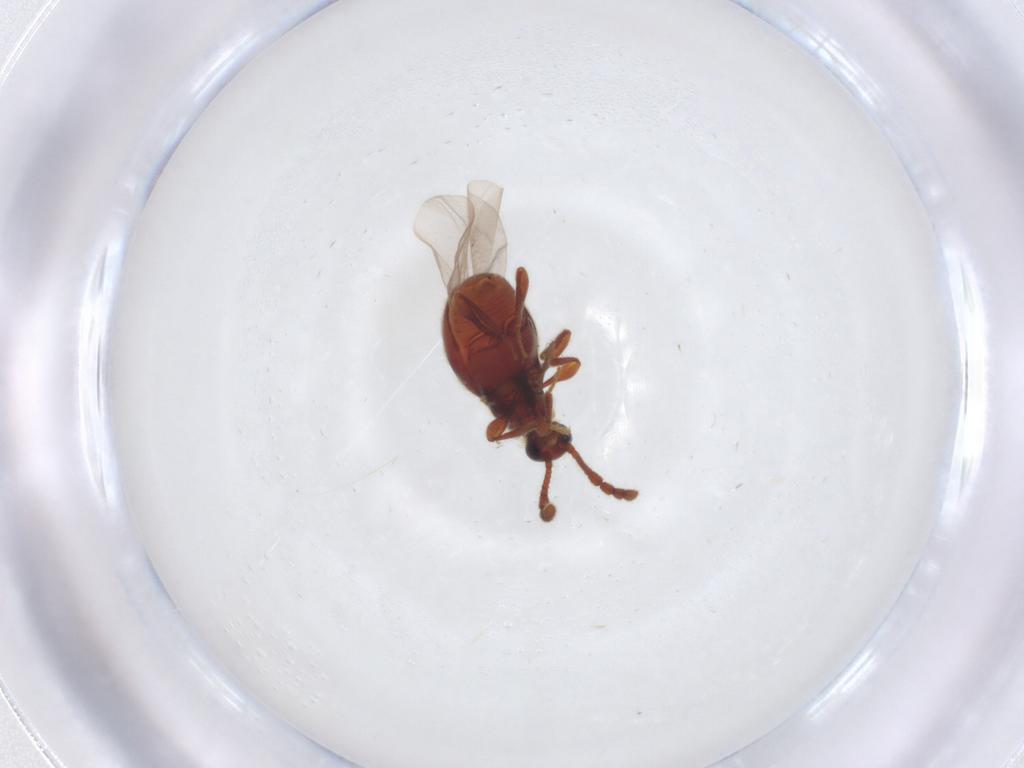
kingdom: Animalia
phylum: Arthropoda
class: Insecta
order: Coleoptera
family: Staphylinidae
